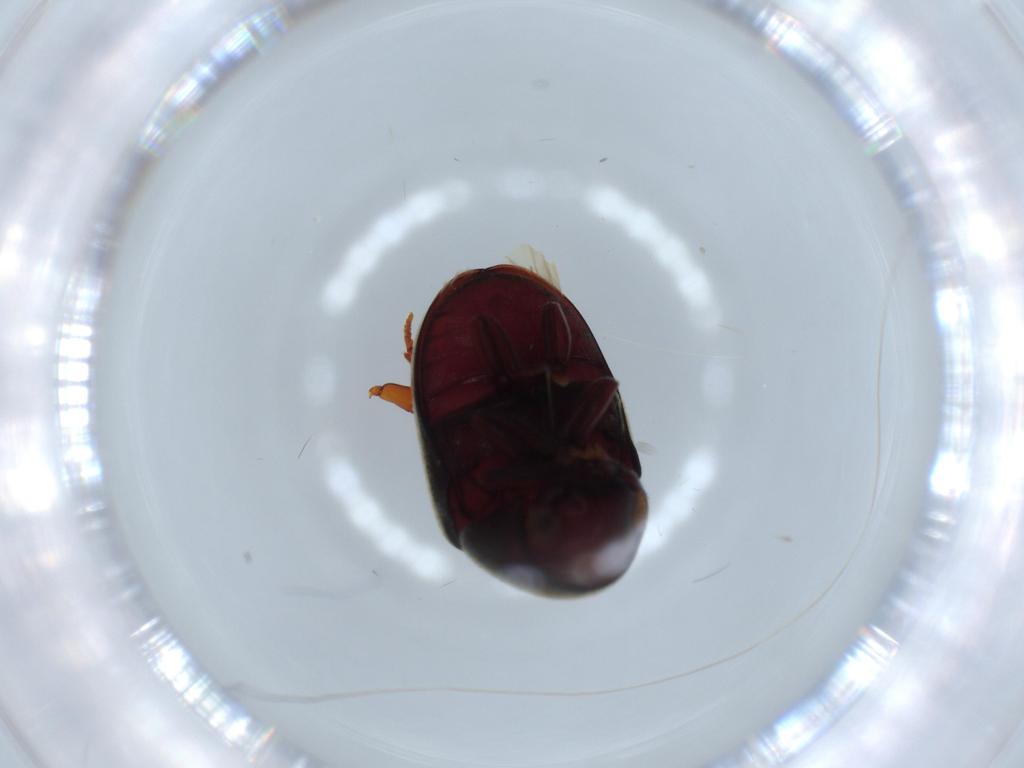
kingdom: Animalia
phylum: Arthropoda
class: Insecta
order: Coleoptera
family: Ptinidae
